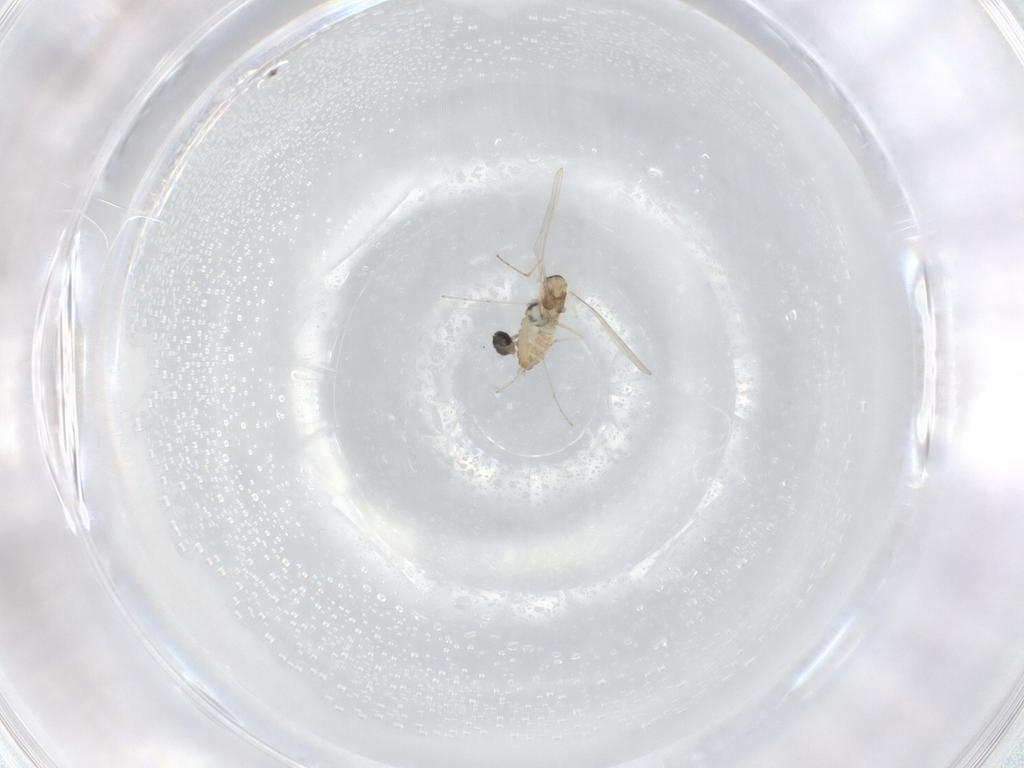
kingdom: Animalia
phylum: Arthropoda
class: Insecta
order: Diptera
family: Cecidomyiidae
